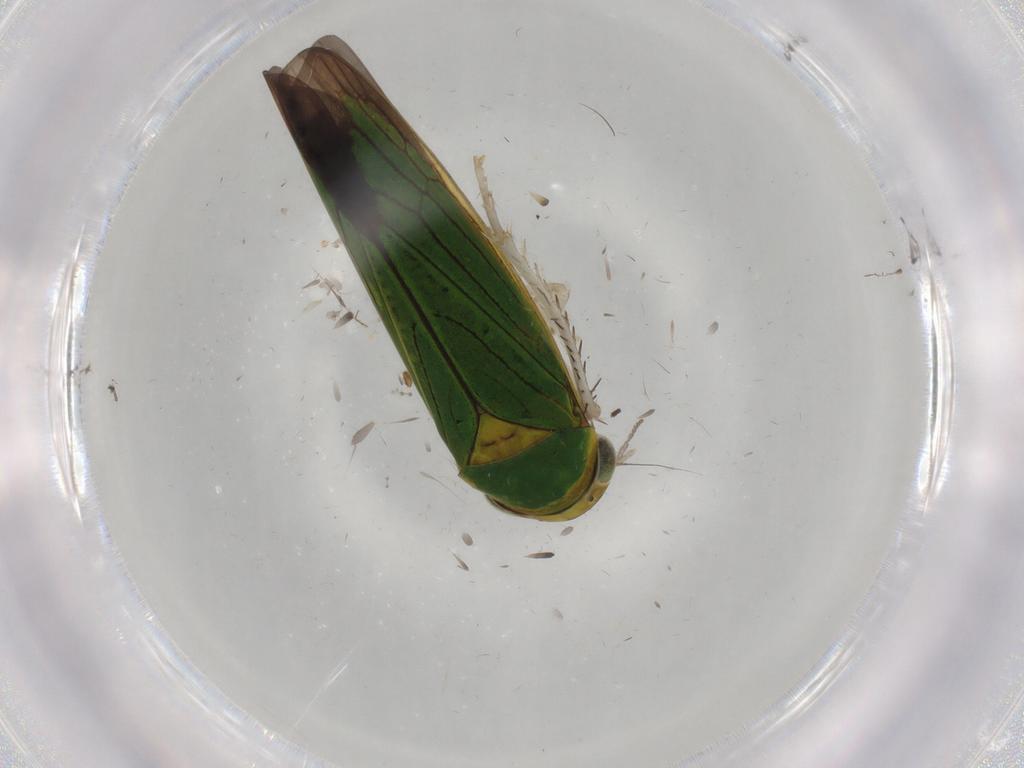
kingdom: Animalia
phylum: Arthropoda
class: Insecta
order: Hemiptera
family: Cicadellidae
